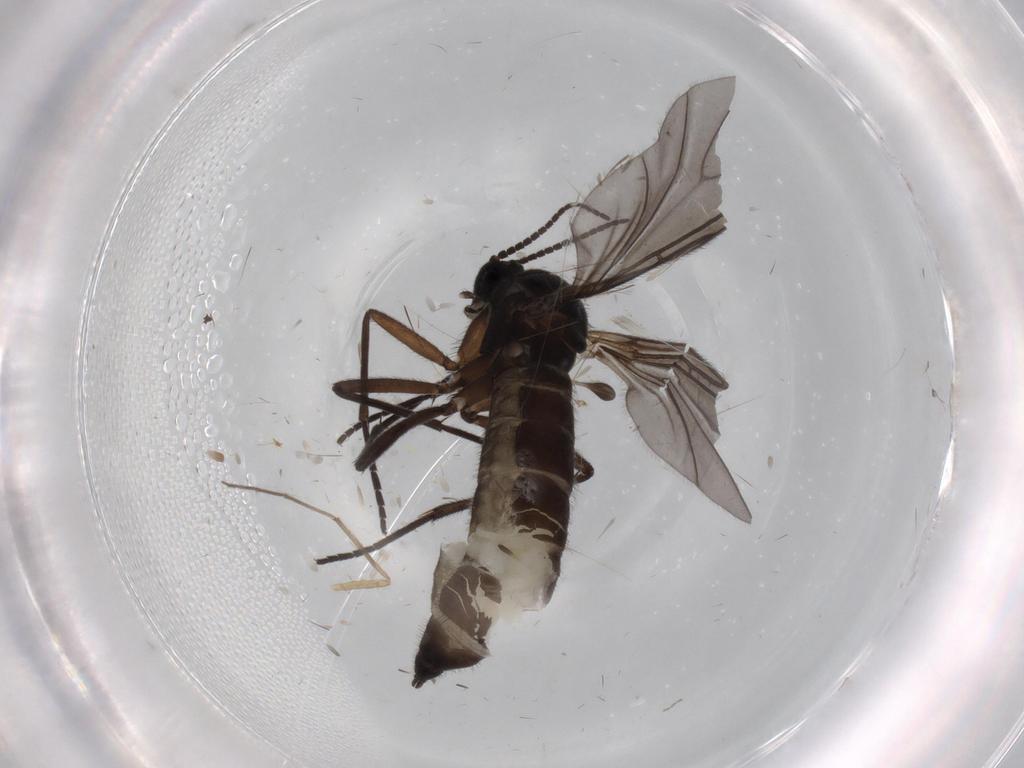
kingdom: Animalia
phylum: Arthropoda
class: Insecta
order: Diptera
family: Sciaridae
